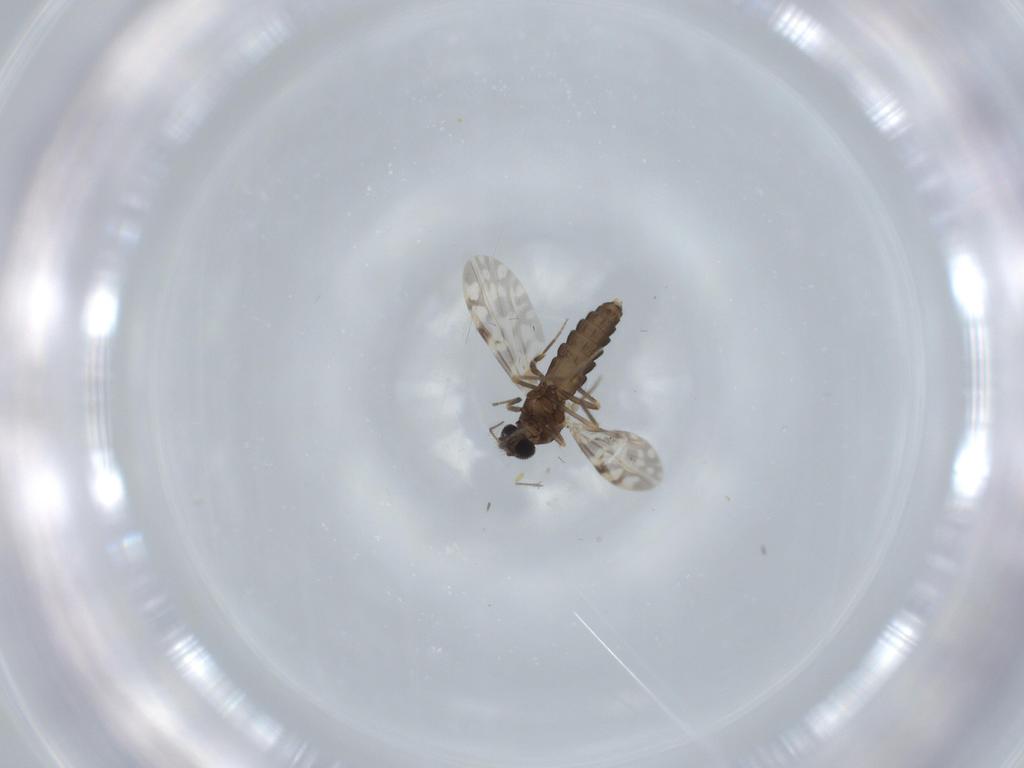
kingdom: Animalia
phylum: Arthropoda
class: Insecta
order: Diptera
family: Ceratopogonidae
